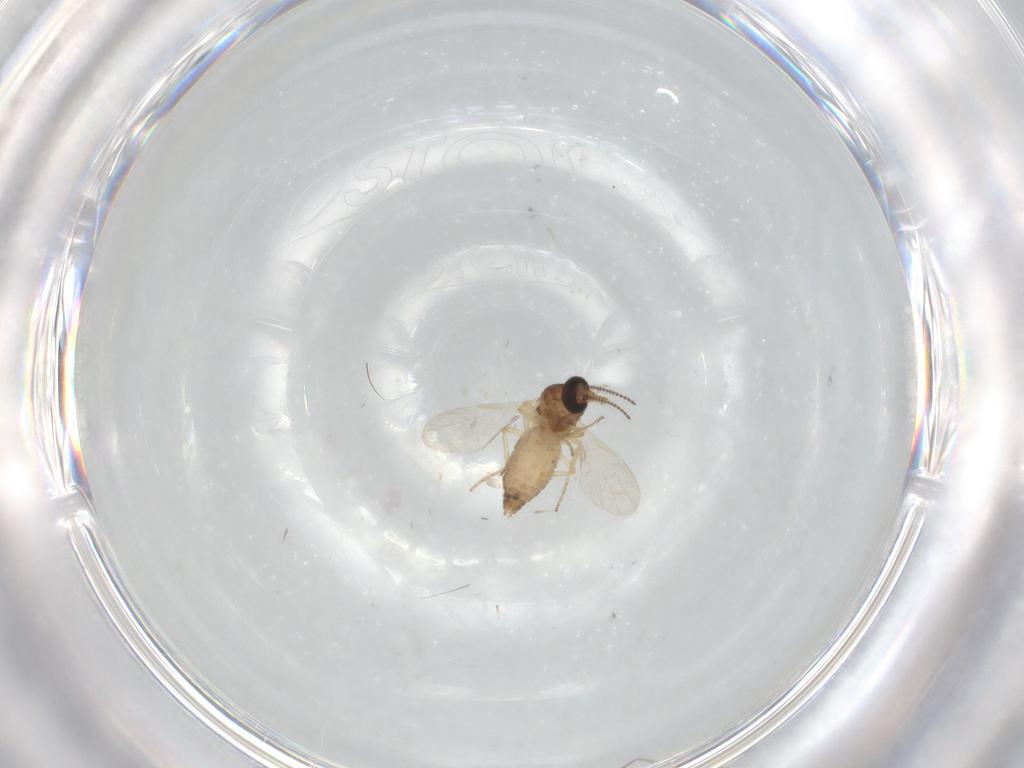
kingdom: Animalia
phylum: Arthropoda
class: Insecta
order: Diptera
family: Ceratopogonidae
